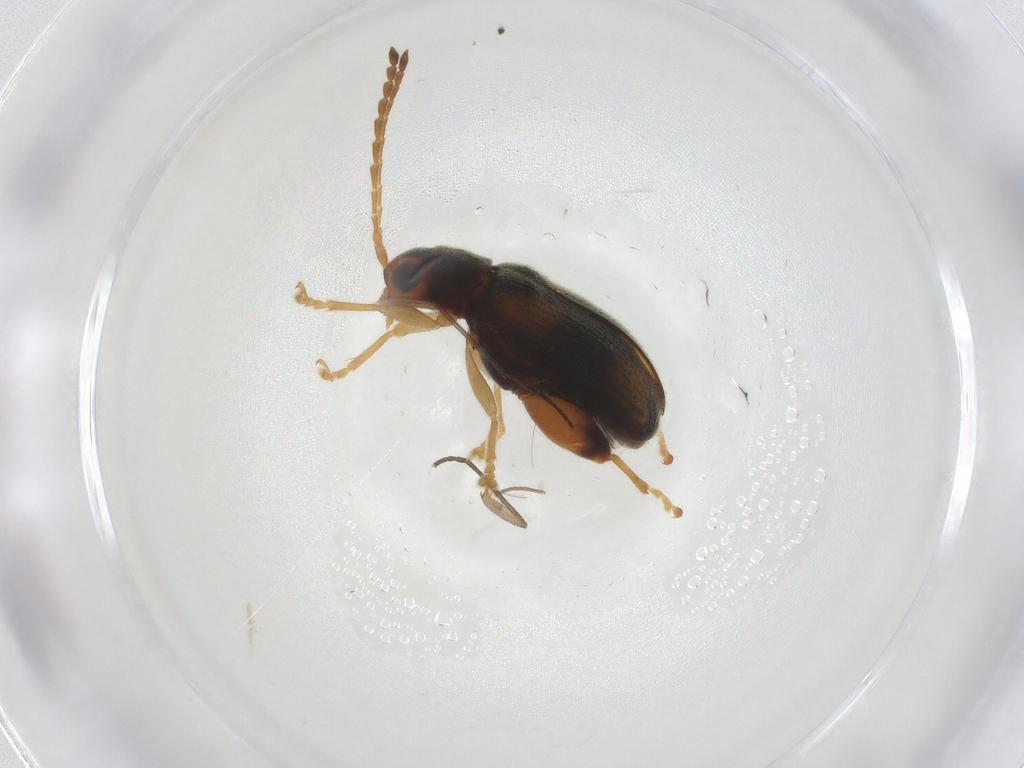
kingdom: Animalia
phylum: Arthropoda
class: Insecta
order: Coleoptera
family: Chrysomelidae
